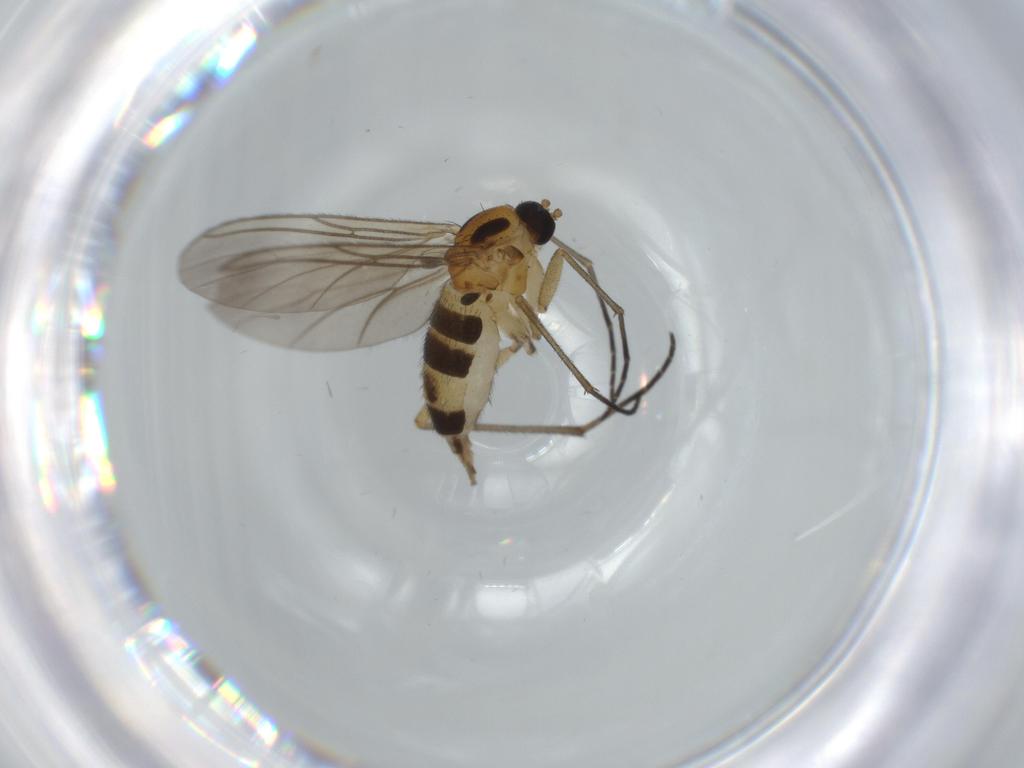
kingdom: Animalia
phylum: Arthropoda
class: Insecta
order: Diptera
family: Sciaridae
